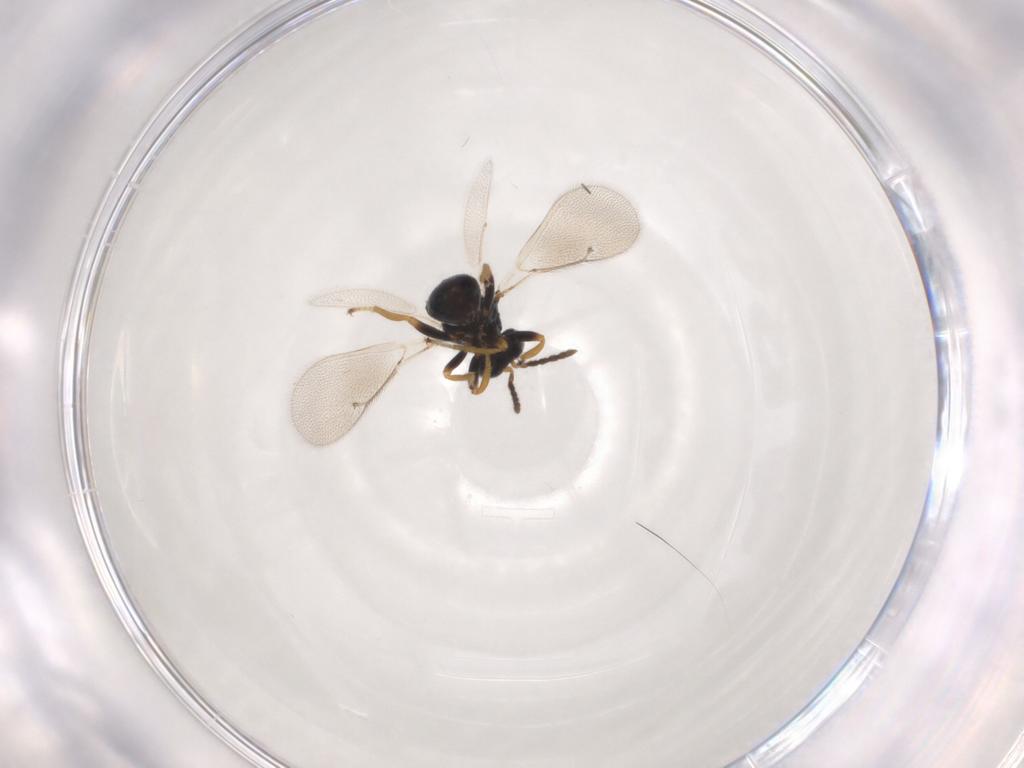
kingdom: Animalia
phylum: Arthropoda
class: Insecta
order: Hymenoptera
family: Eulophidae
